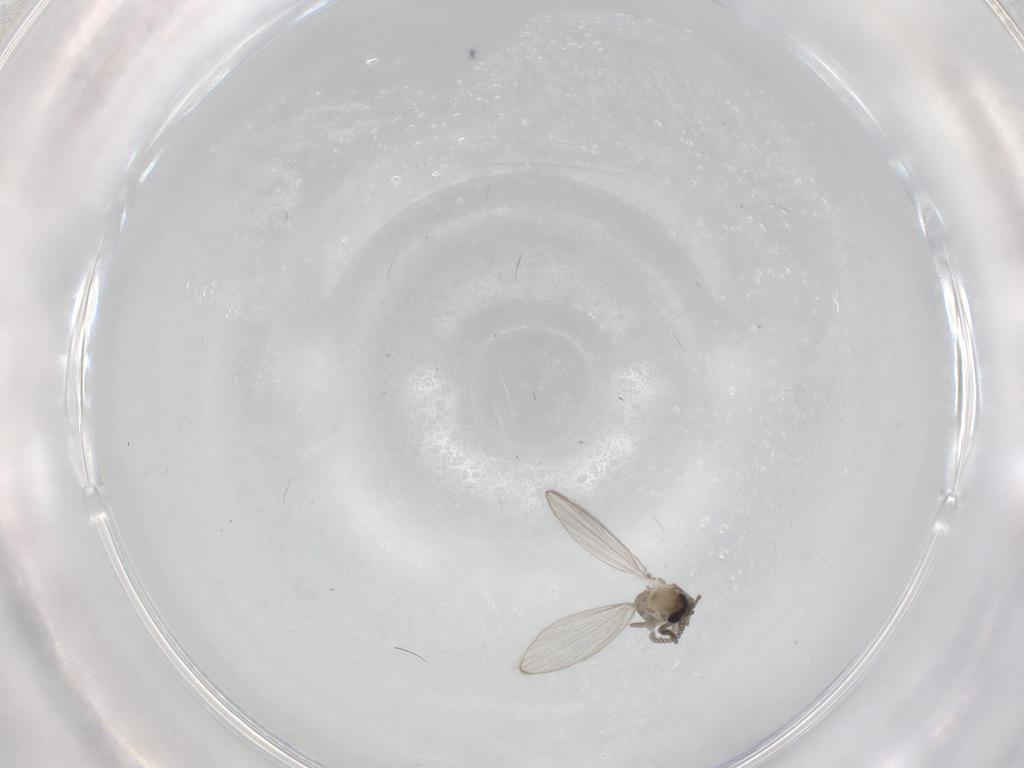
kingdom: Animalia
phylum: Arthropoda
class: Insecta
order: Diptera
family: Psychodidae
